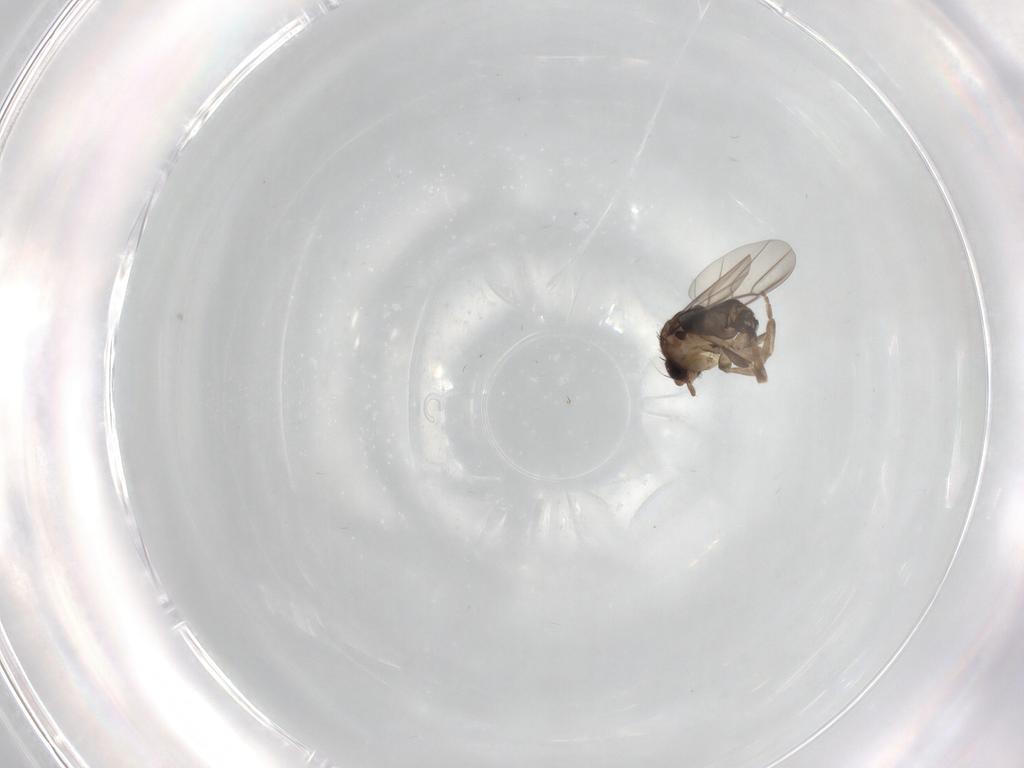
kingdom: Animalia
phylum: Arthropoda
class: Insecta
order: Diptera
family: Phoridae
